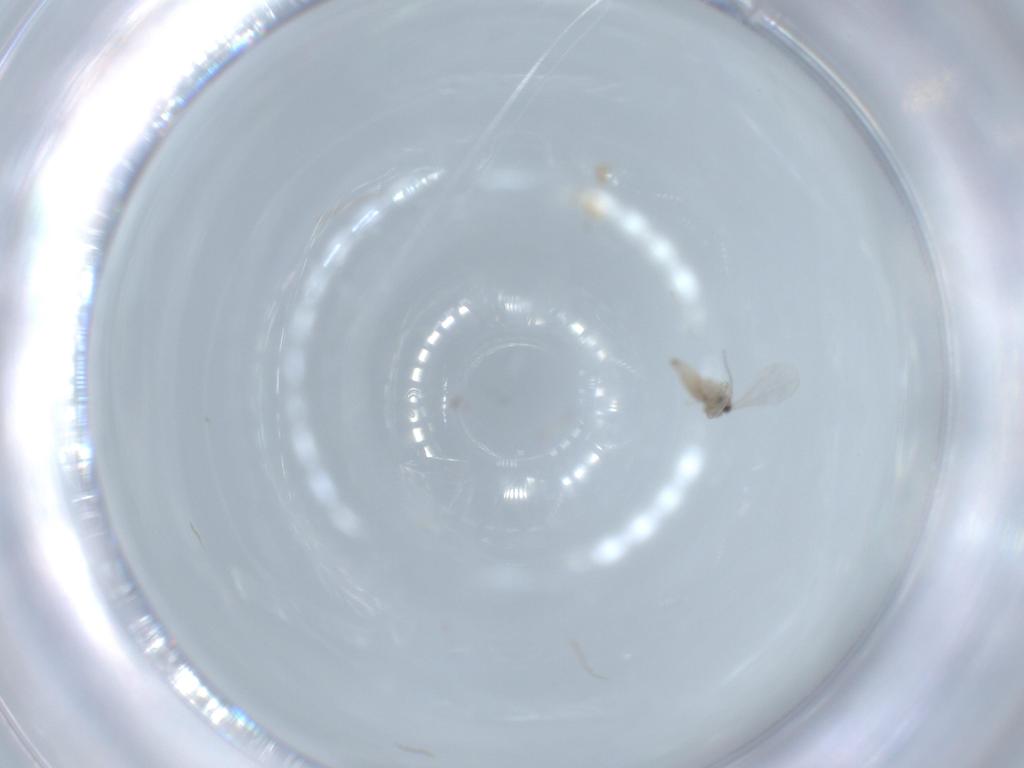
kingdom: Animalia
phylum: Arthropoda
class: Insecta
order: Diptera
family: Cecidomyiidae
